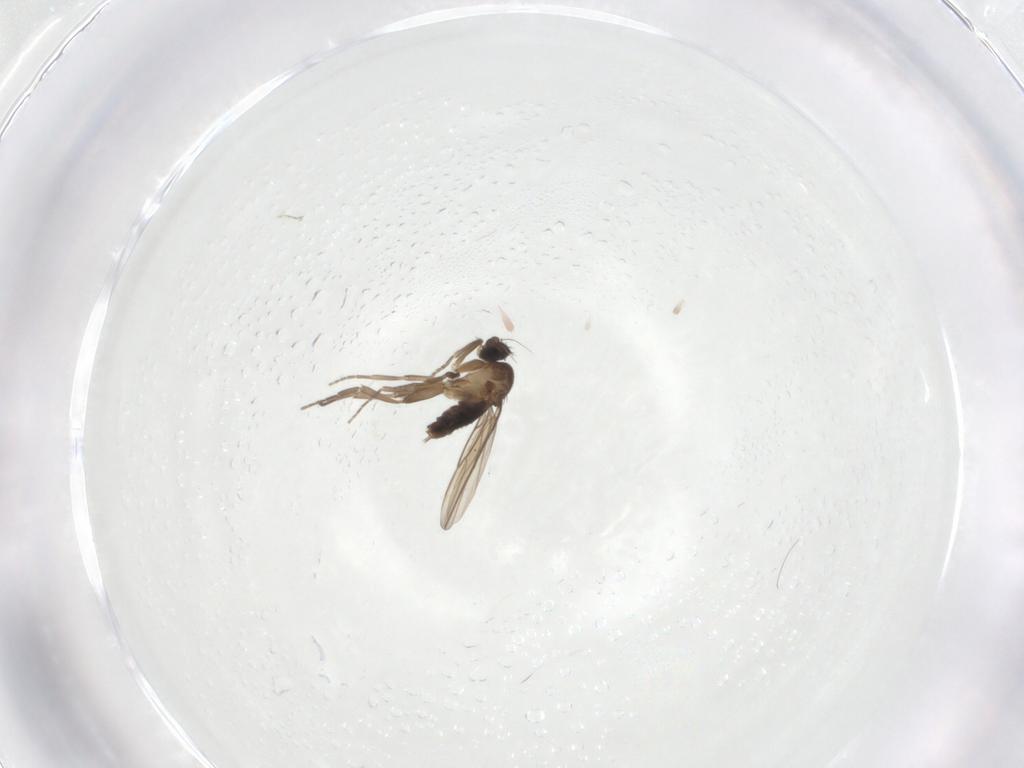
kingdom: Animalia
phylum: Arthropoda
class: Insecta
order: Diptera
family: Phoridae
